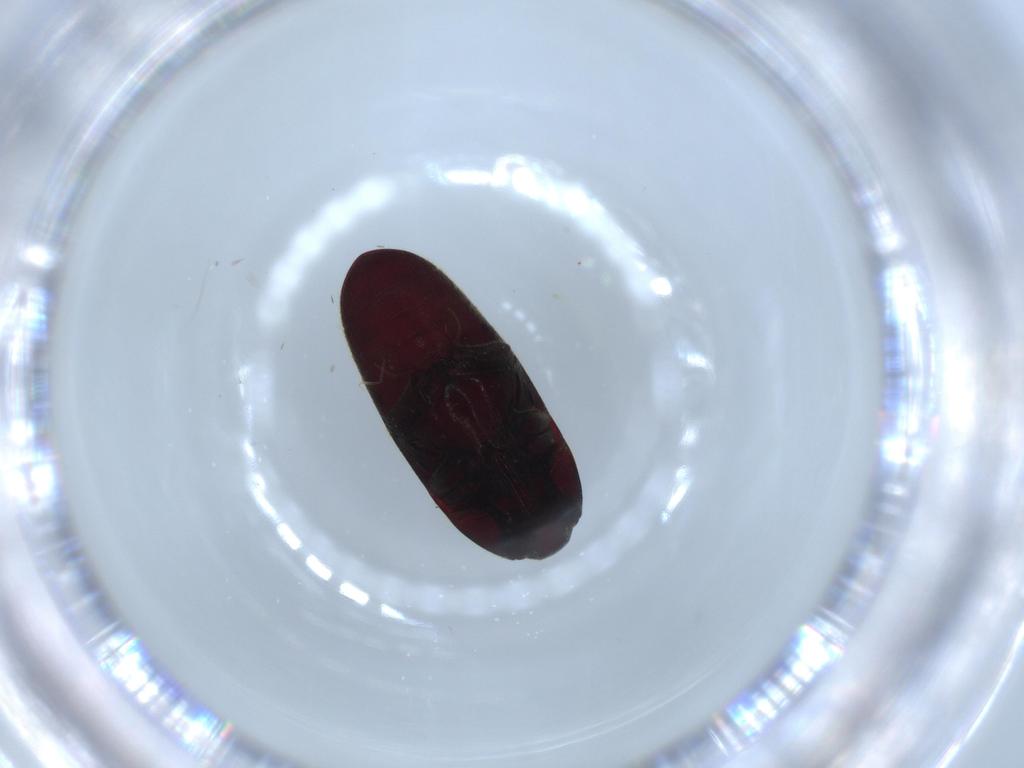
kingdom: Animalia
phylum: Arthropoda
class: Insecta
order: Coleoptera
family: Throscidae
